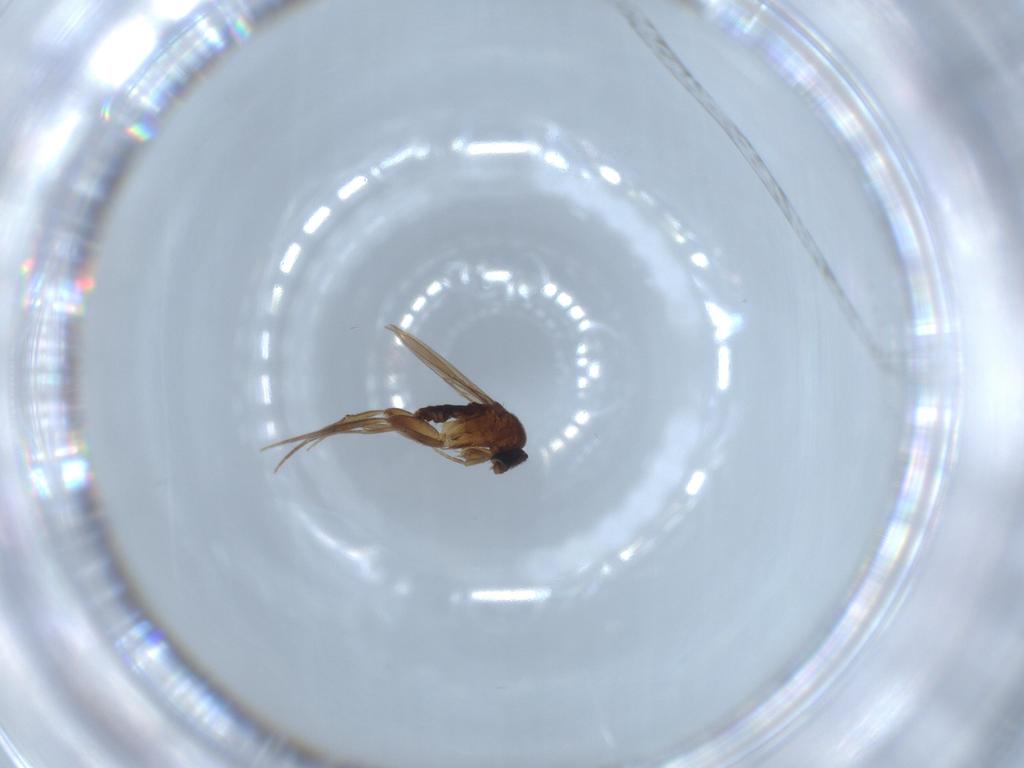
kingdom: Animalia
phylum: Arthropoda
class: Insecta
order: Diptera
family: Phoridae
